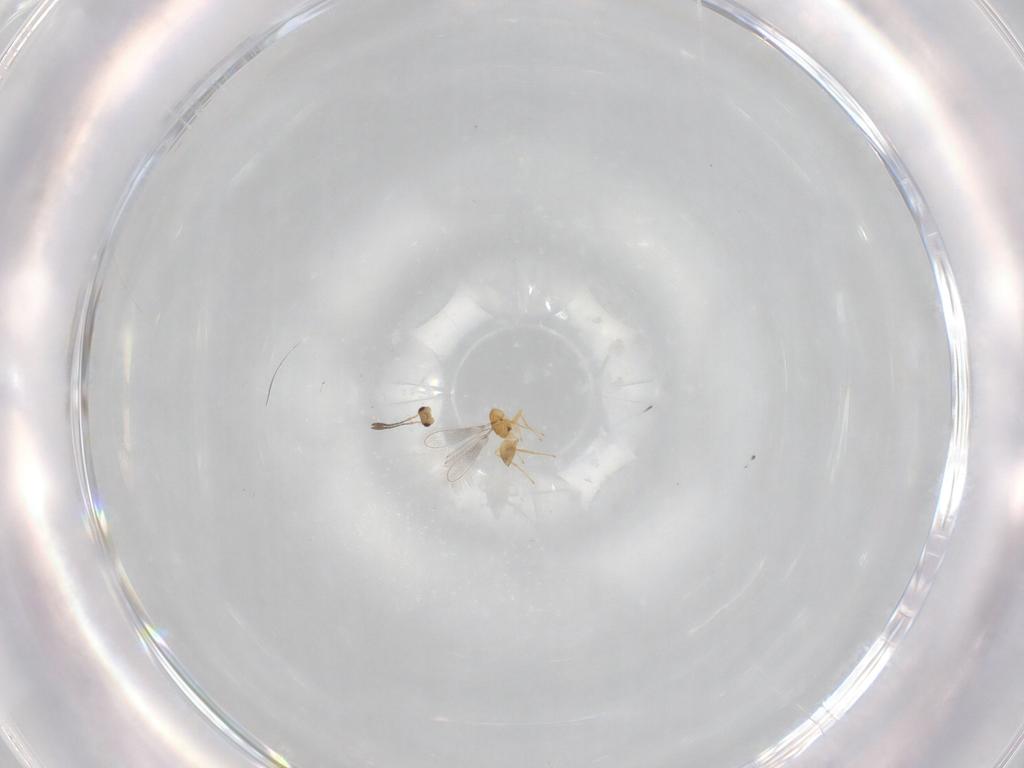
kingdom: Animalia
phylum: Arthropoda
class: Insecta
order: Hymenoptera
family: Mymaridae
